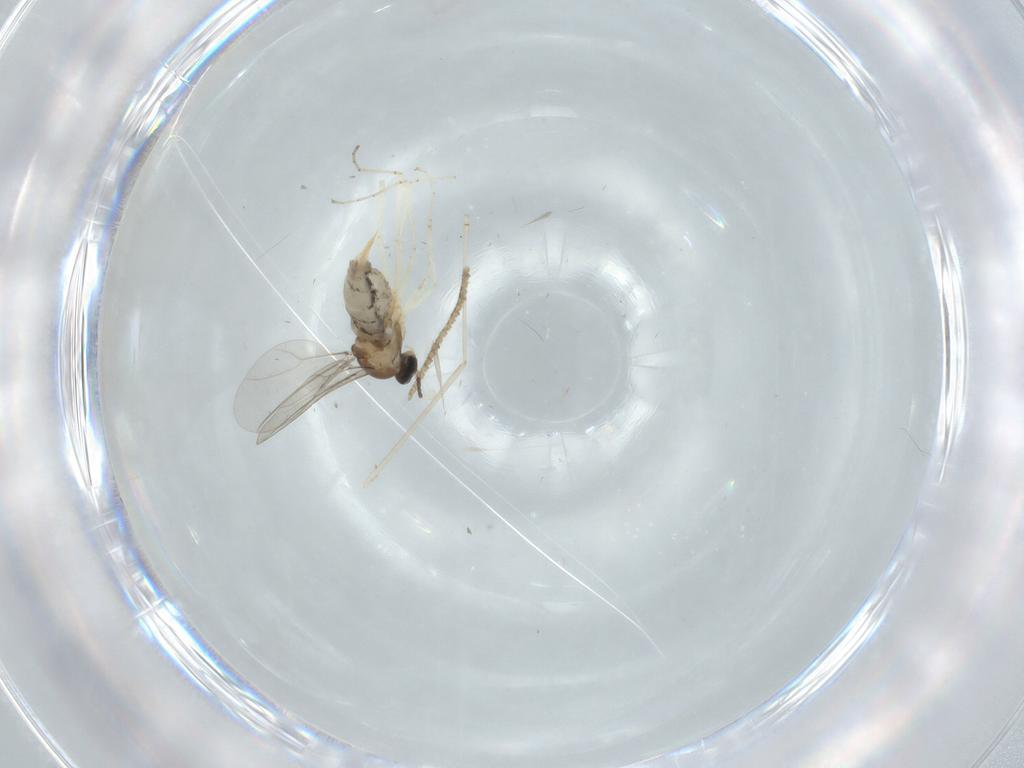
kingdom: Animalia
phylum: Arthropoda
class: Insecta
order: Diptera
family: Cecidomyiidae
